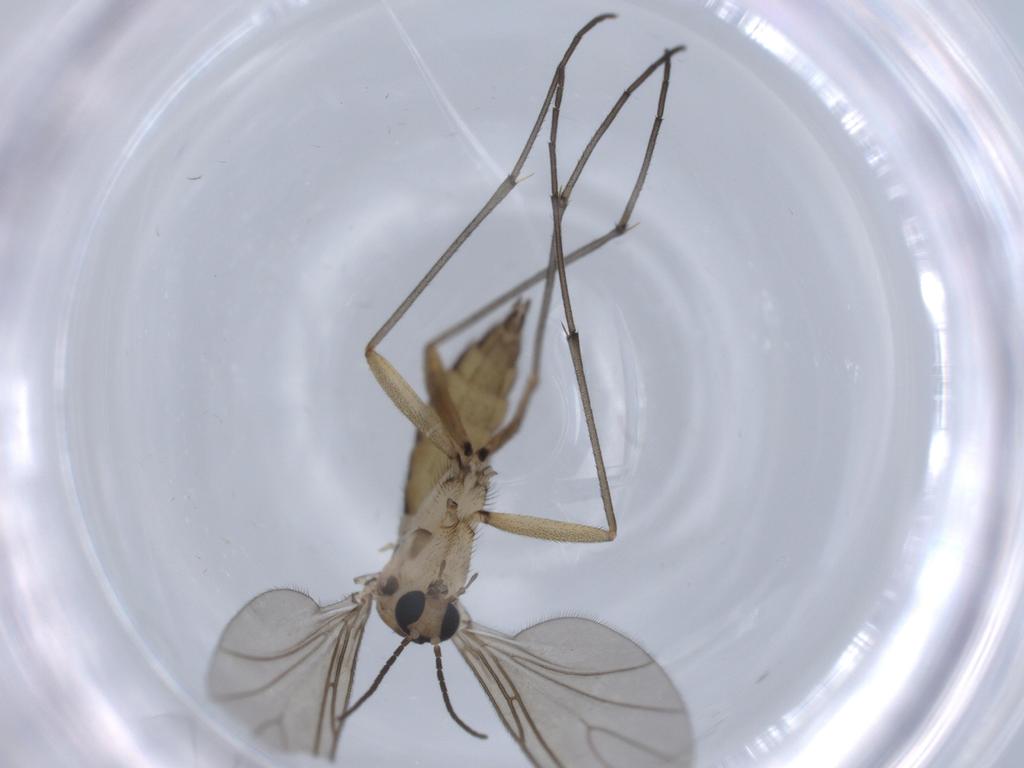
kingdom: Animalia
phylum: Arthropoda
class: Insecta
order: Diptera
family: Sciaridae
